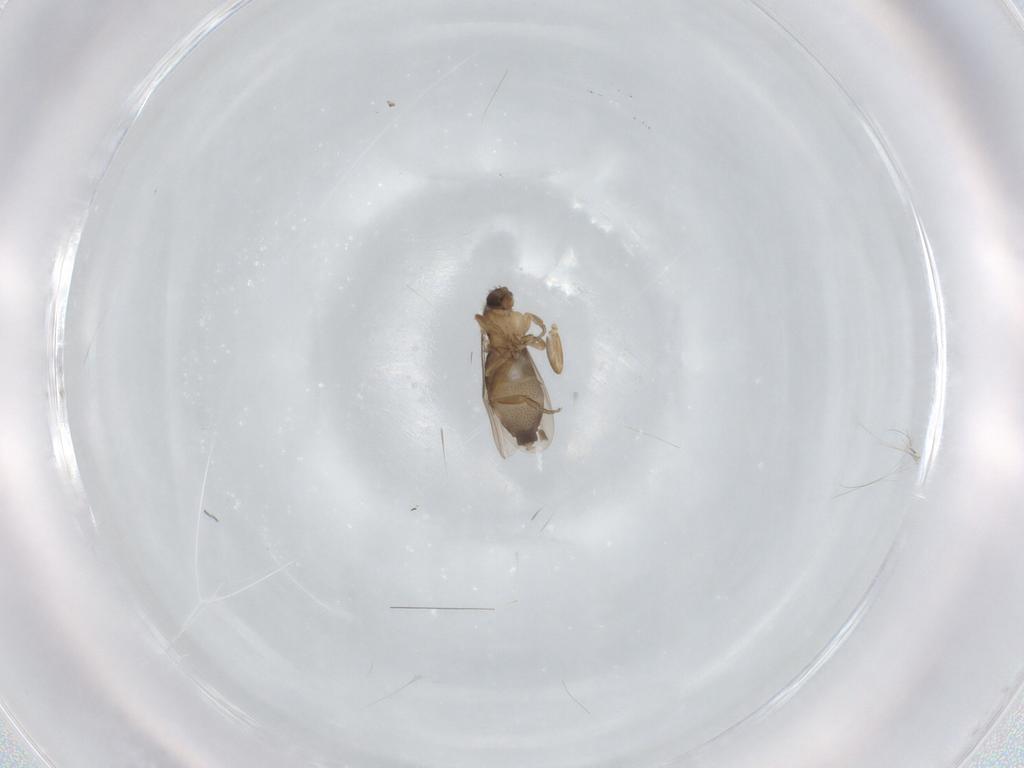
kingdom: Animalia
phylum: Arthropoda
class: Insecta
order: Diptera
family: Phoridae
